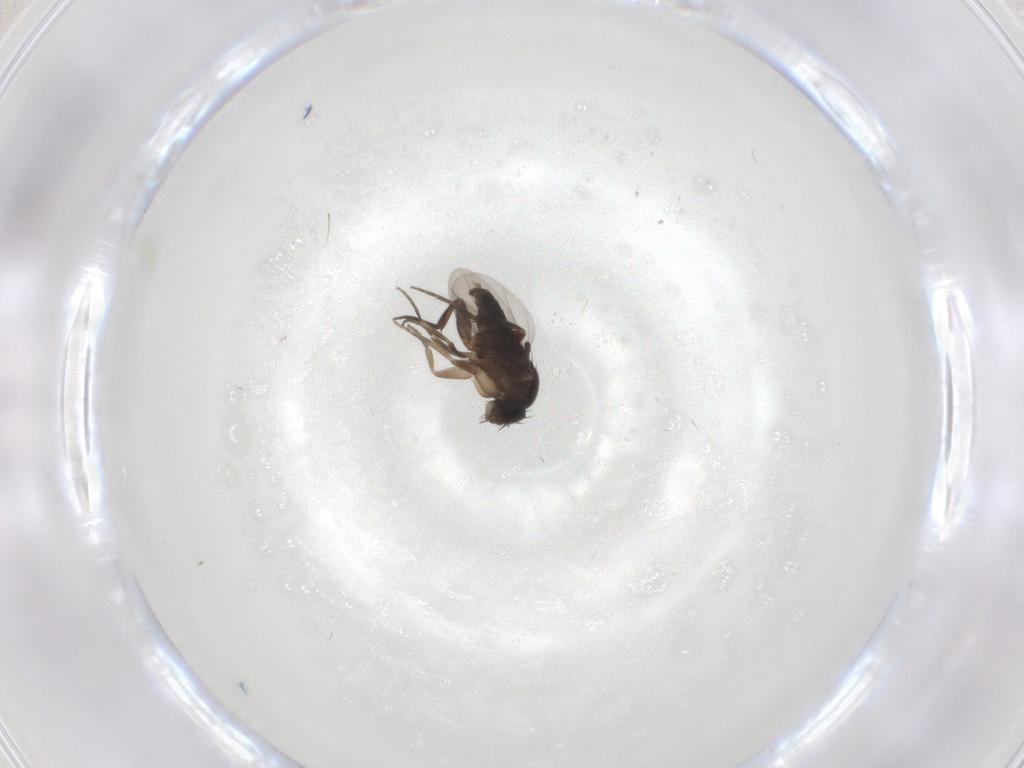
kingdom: Animalia
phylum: Arthropoda
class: Insecta
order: Diptera
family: Phoridae
